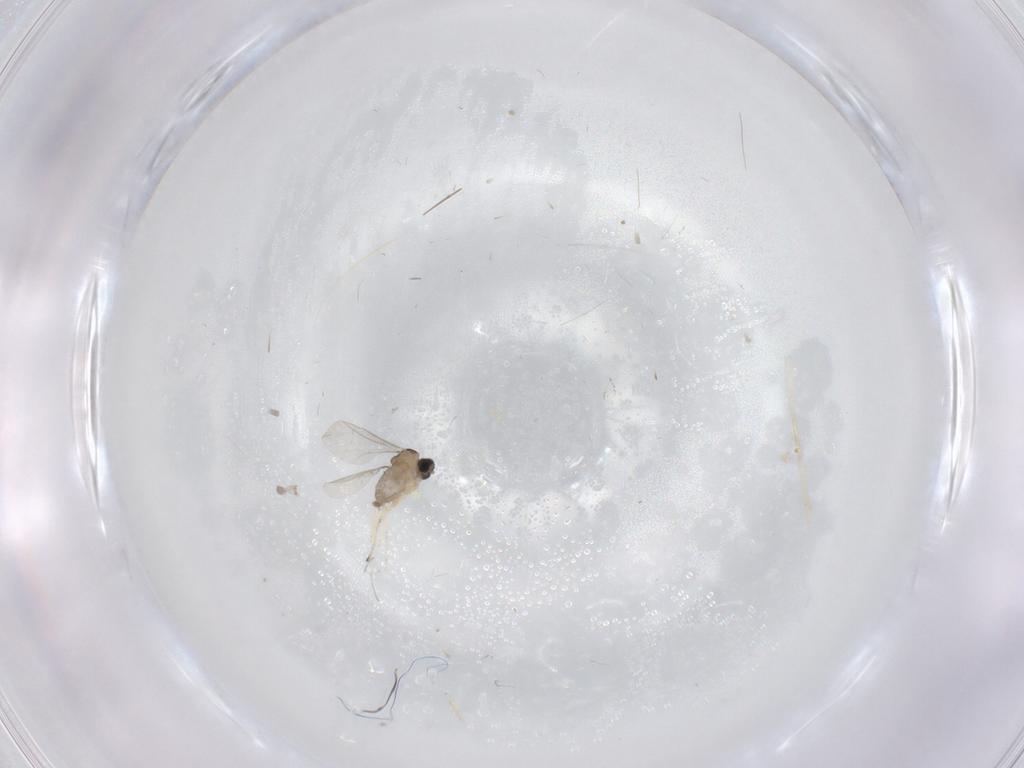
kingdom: Animalia
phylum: Arthropoda
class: Insecta
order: Diptera
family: Cecidomyiidae
